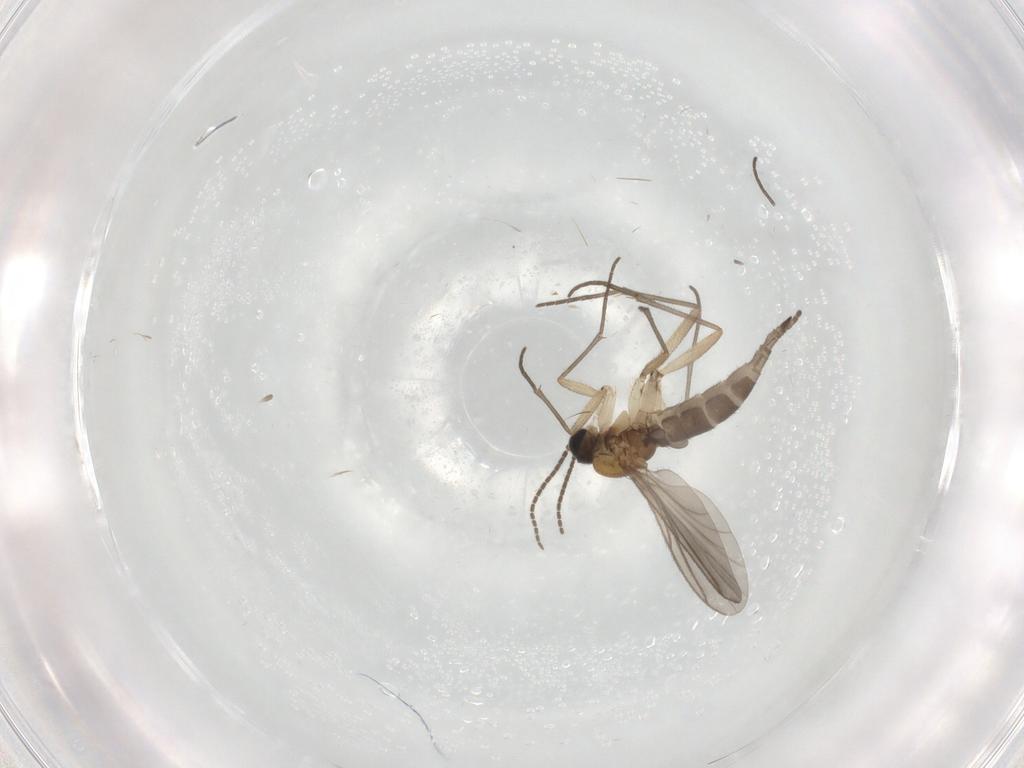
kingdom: Animalia
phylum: Arthropoda
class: Insecta
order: Diptera
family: Sciaridae
